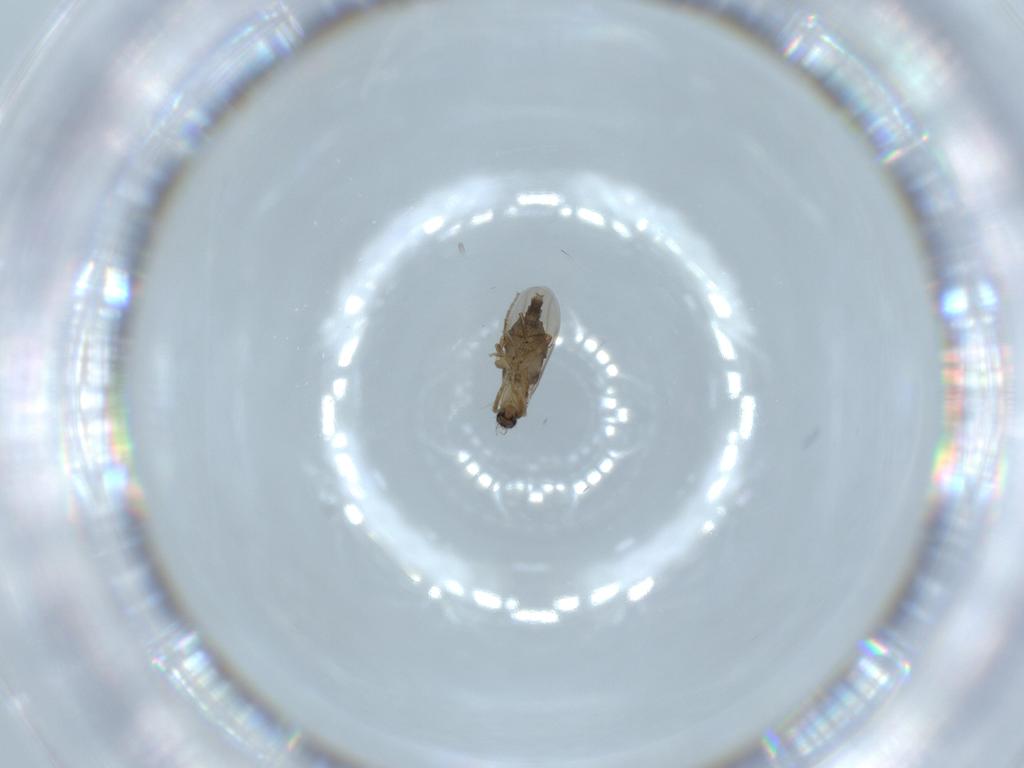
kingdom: Animalia
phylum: Arthropoda
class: Insecta
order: Diptera
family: Phoridae
